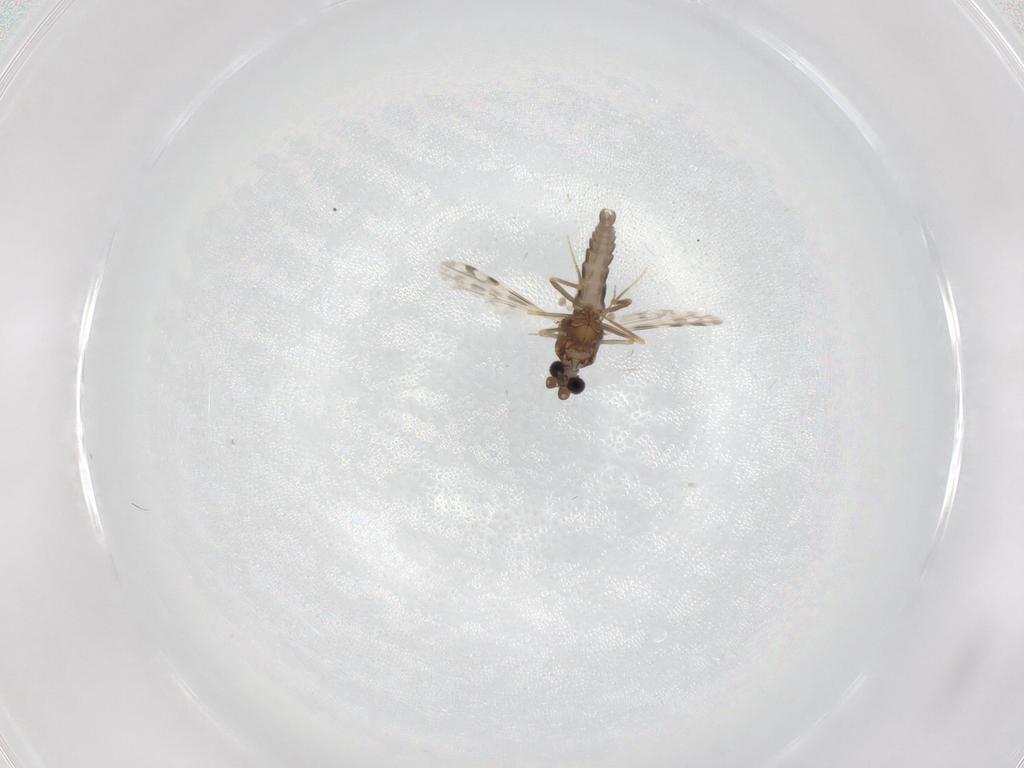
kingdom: Animalia
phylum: Arthropoda
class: Insecta
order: Diptera
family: Ceratopogonidae
